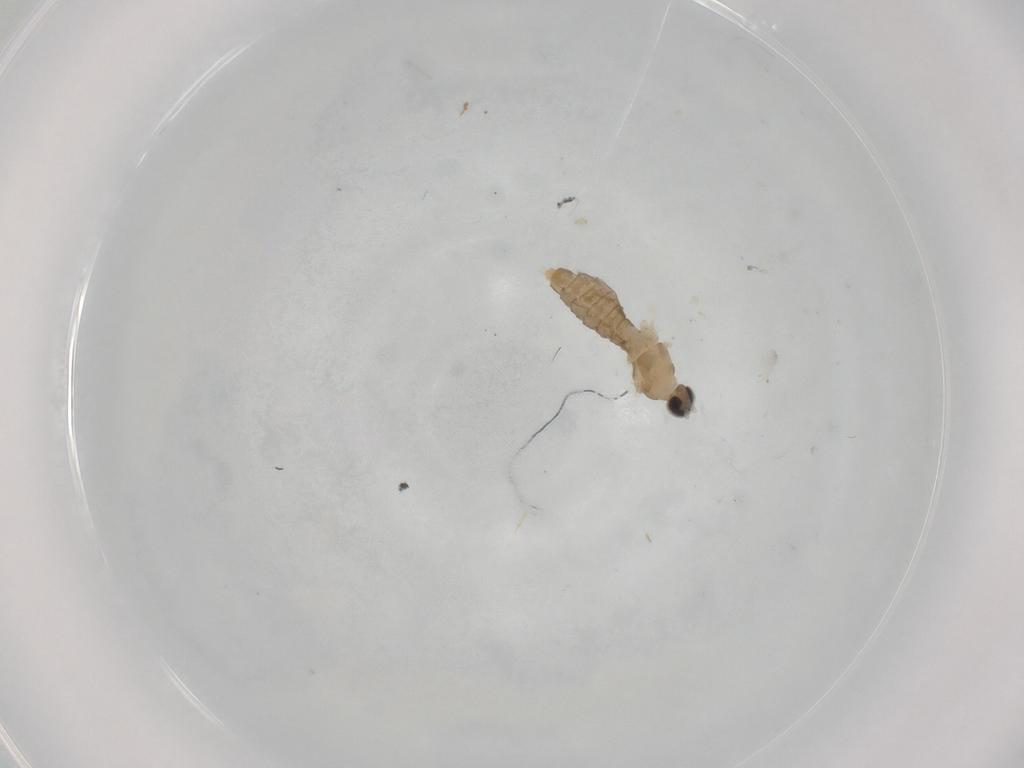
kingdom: Animalia
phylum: Arthropoda
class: Insecta
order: Diptera
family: Cecidomyiidae
